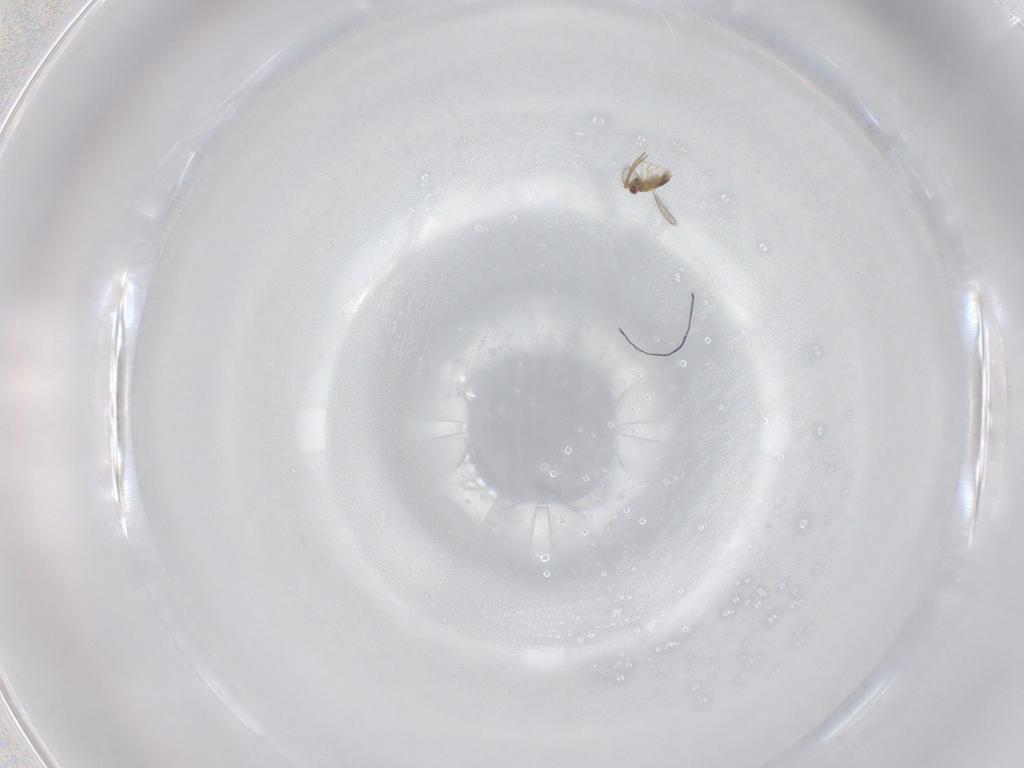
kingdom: Animalia
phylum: Arthropoda
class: Insecta
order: Hymenoptera
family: Aphelinidae
